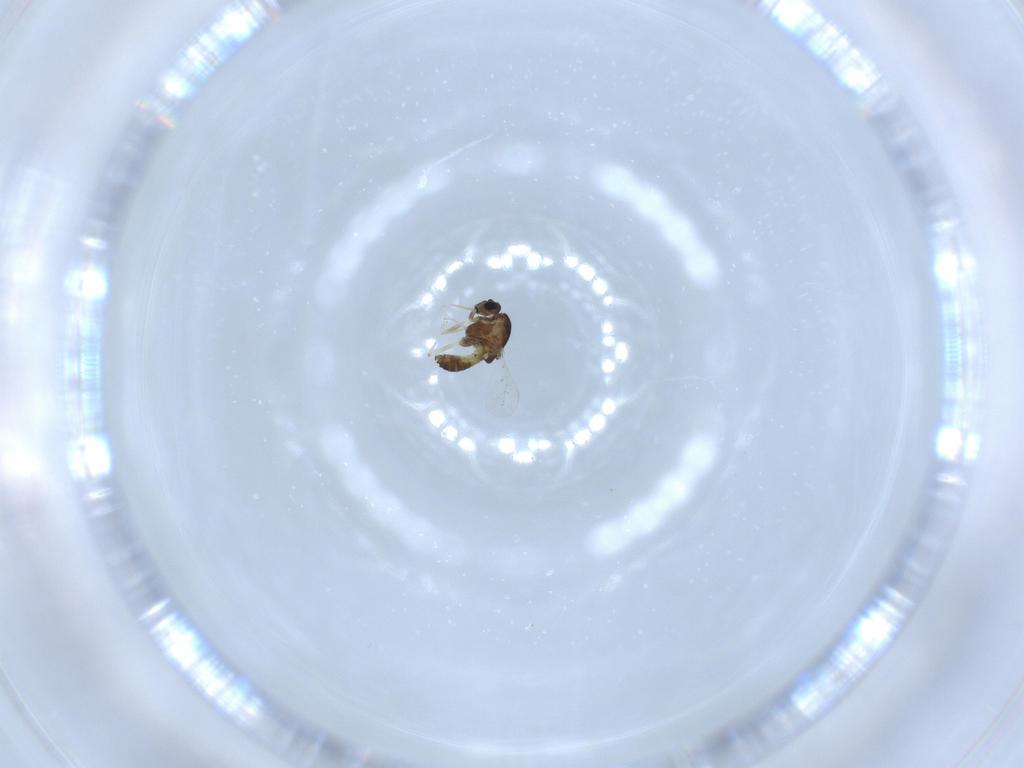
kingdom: Animalia
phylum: Arthropoda
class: Insecta
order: Diptera
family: Chironomidae
